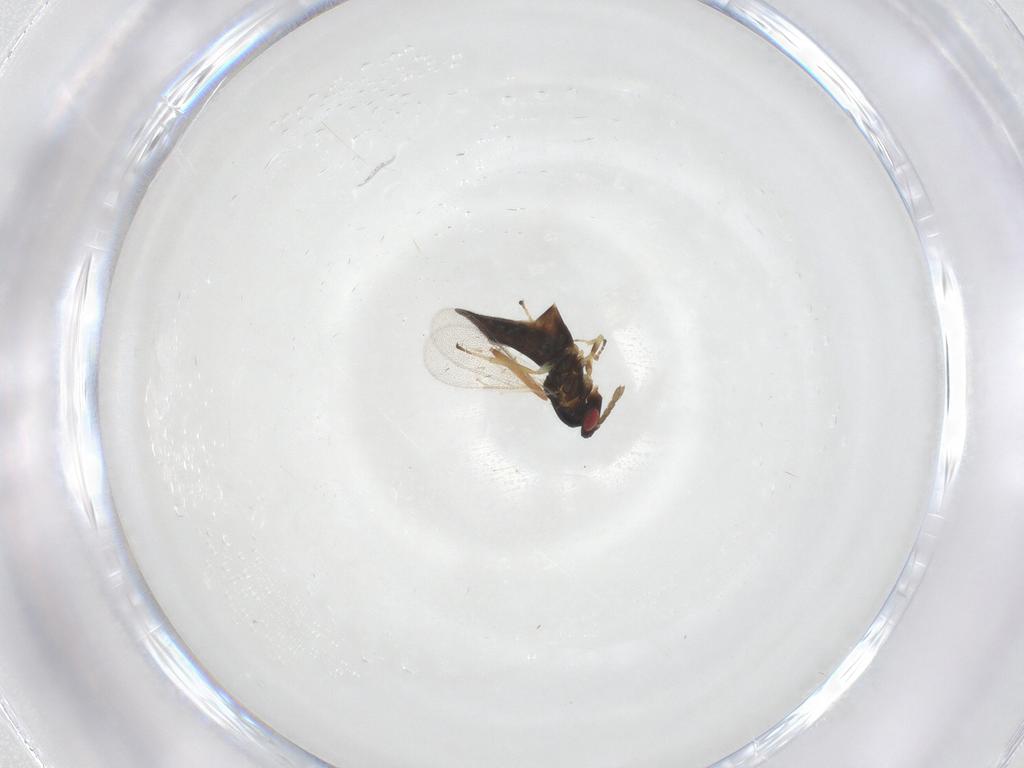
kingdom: Animalia
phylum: Arthropoda
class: Insecta
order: Hymenoptera
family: Eulophidae
